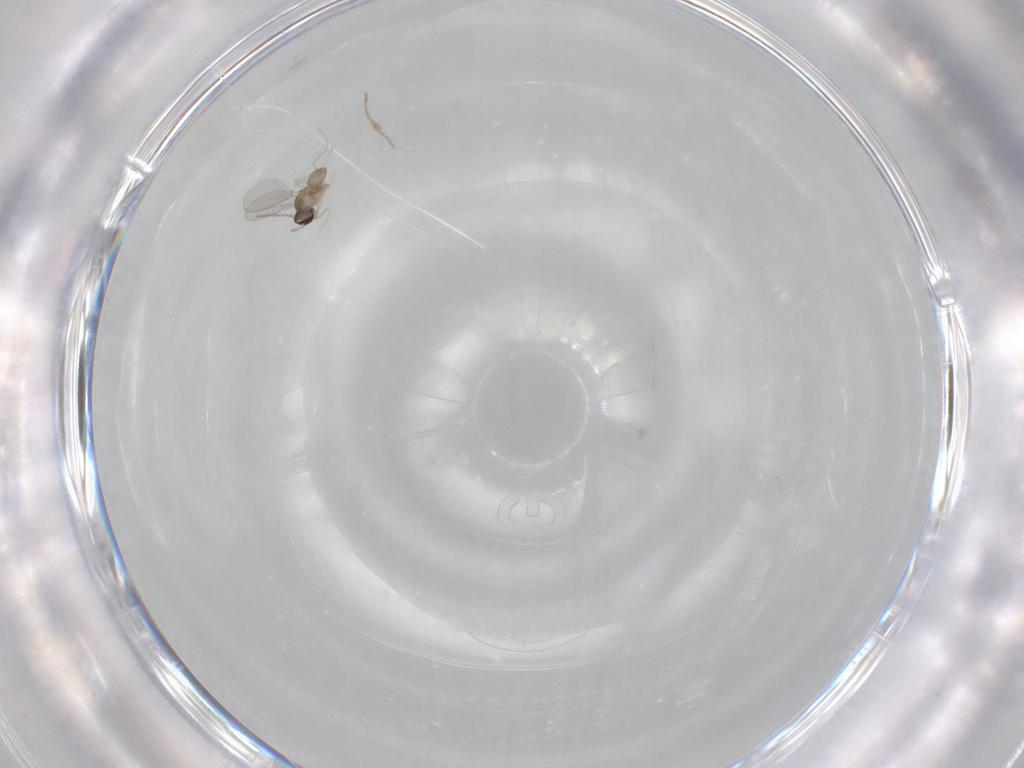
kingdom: Animalia
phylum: Arthropoda
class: Insecta
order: Diptera
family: Cecidomyiidae
